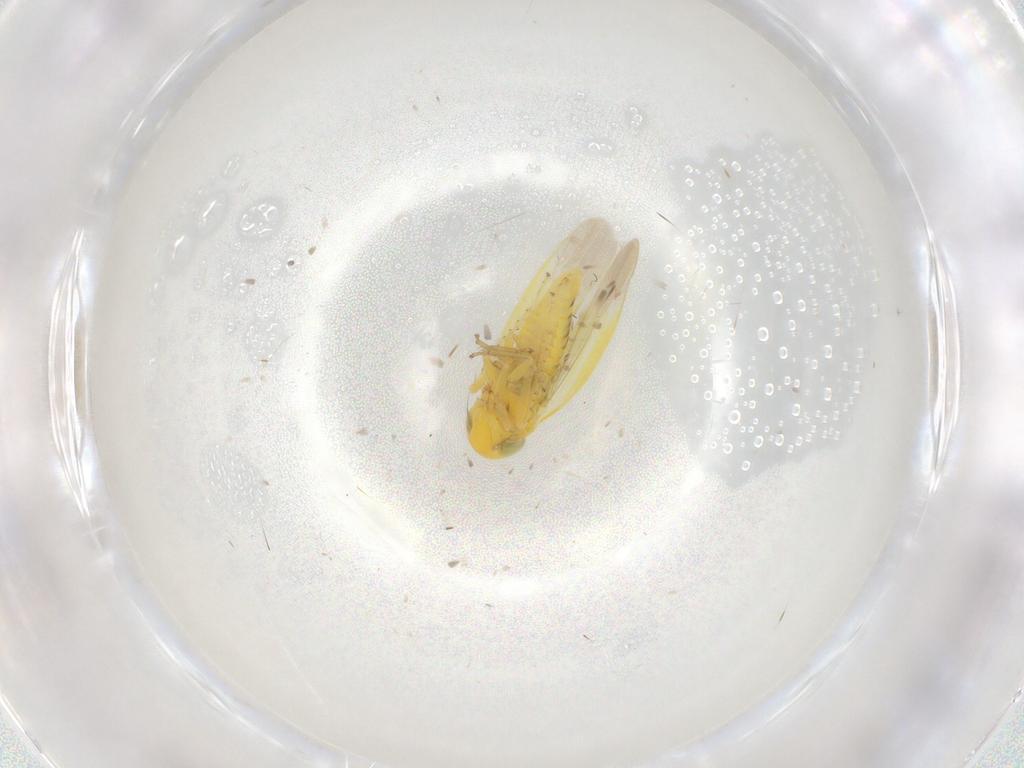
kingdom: Animalia
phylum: Arthropoda
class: Insecta
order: Hemiptera
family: Cicadellidae
